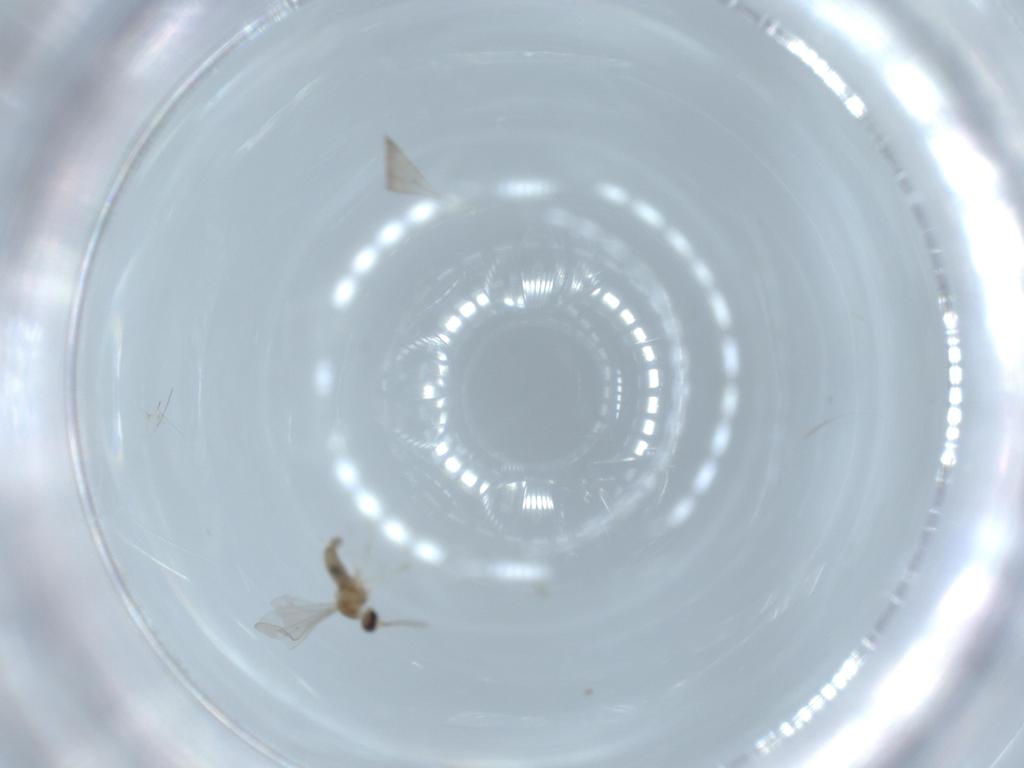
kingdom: Animalia
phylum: Arthropoda
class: Insecta
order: Diptera
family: Cecidomyiidae
